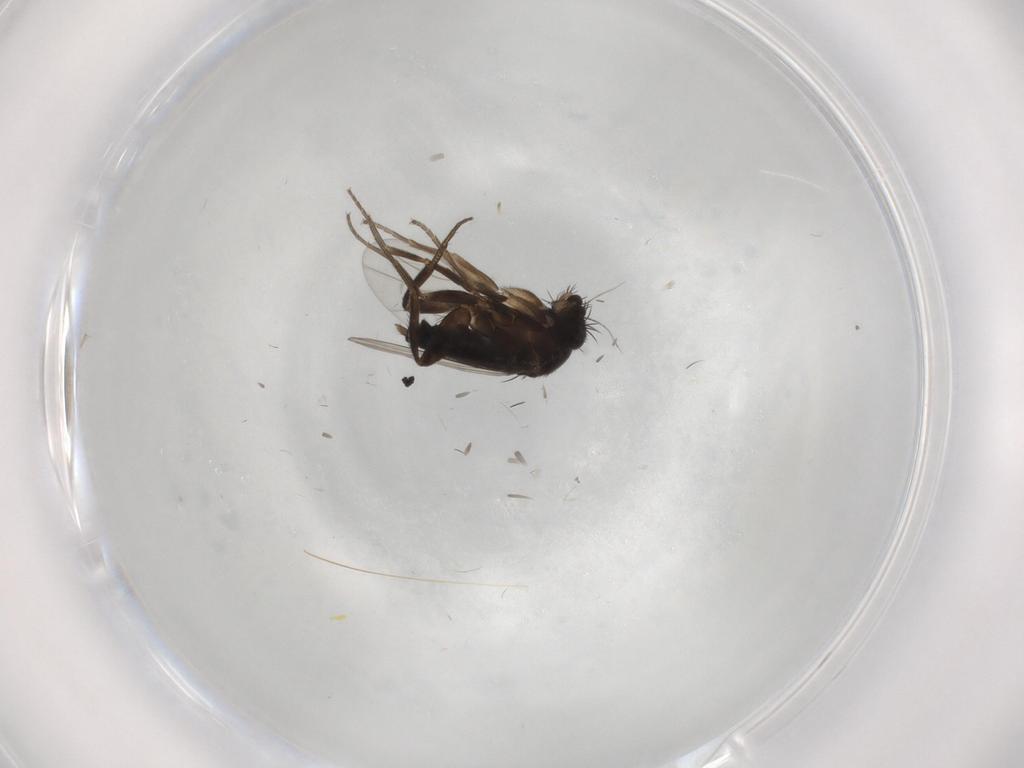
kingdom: Animalia
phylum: Arthropoda
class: Insecta
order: Diptera
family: Phoridae
